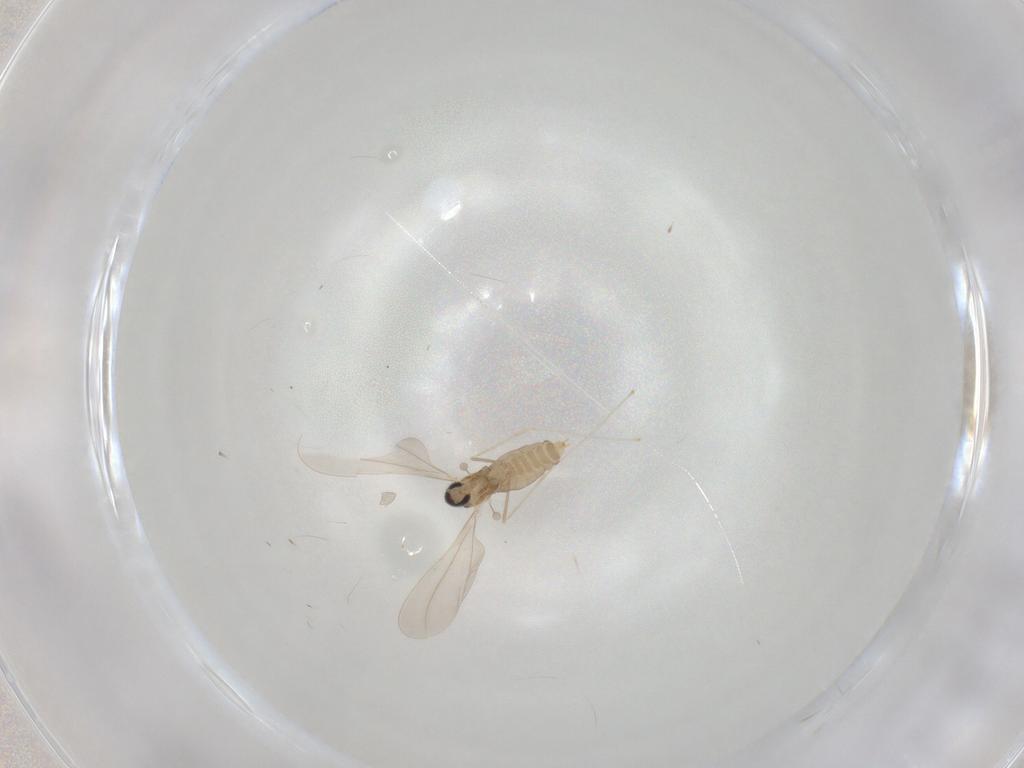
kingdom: Animalia
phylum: Arthropoda
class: Insecta
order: Diptera
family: Cecidomyiidae
